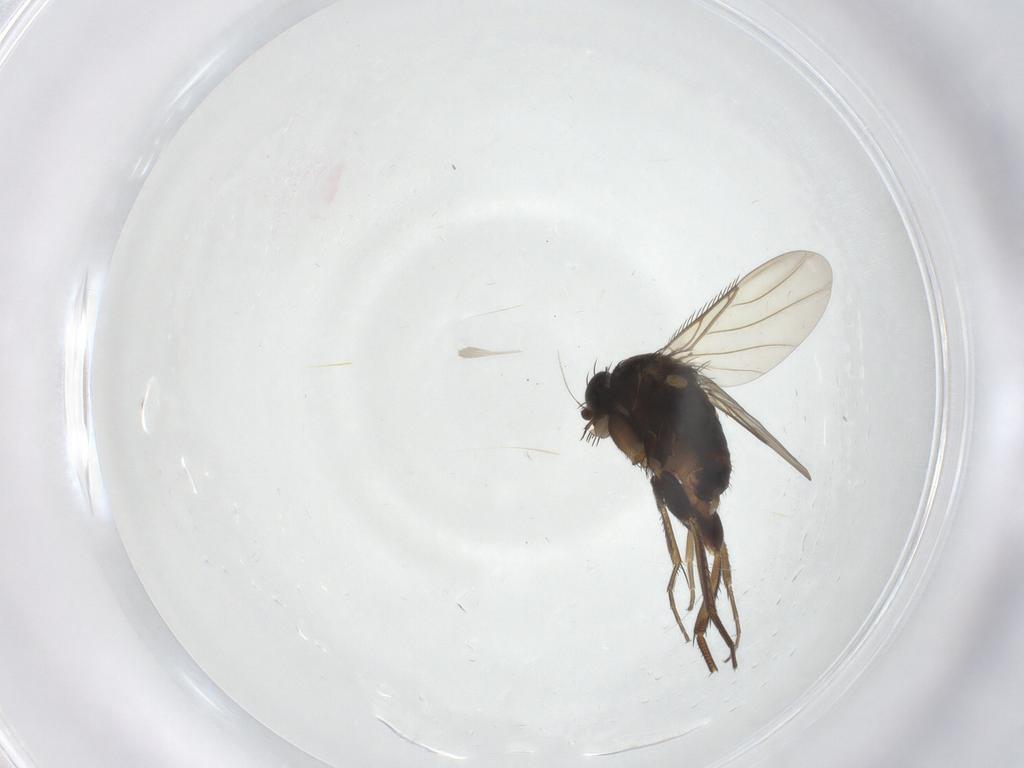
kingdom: Animalia
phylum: Arthropoda
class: Insecta
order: Diptera
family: Phoridae
